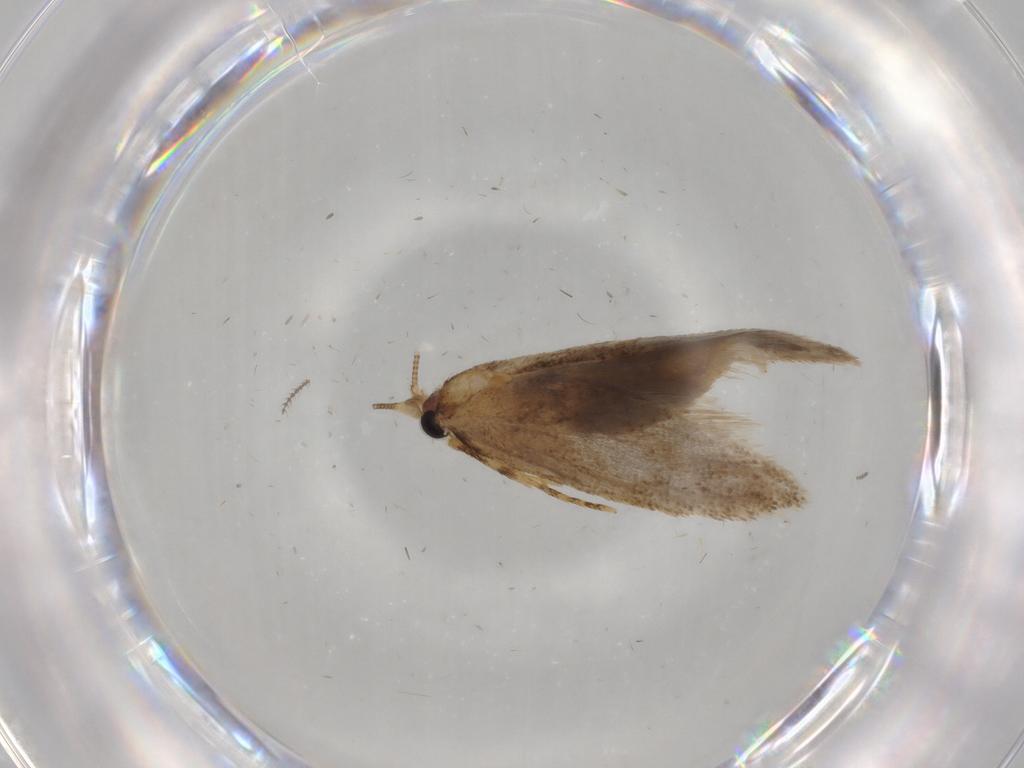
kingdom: Animalia
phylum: Arthropoda
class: Insecta
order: Lepidoptera
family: Nepticulidae
